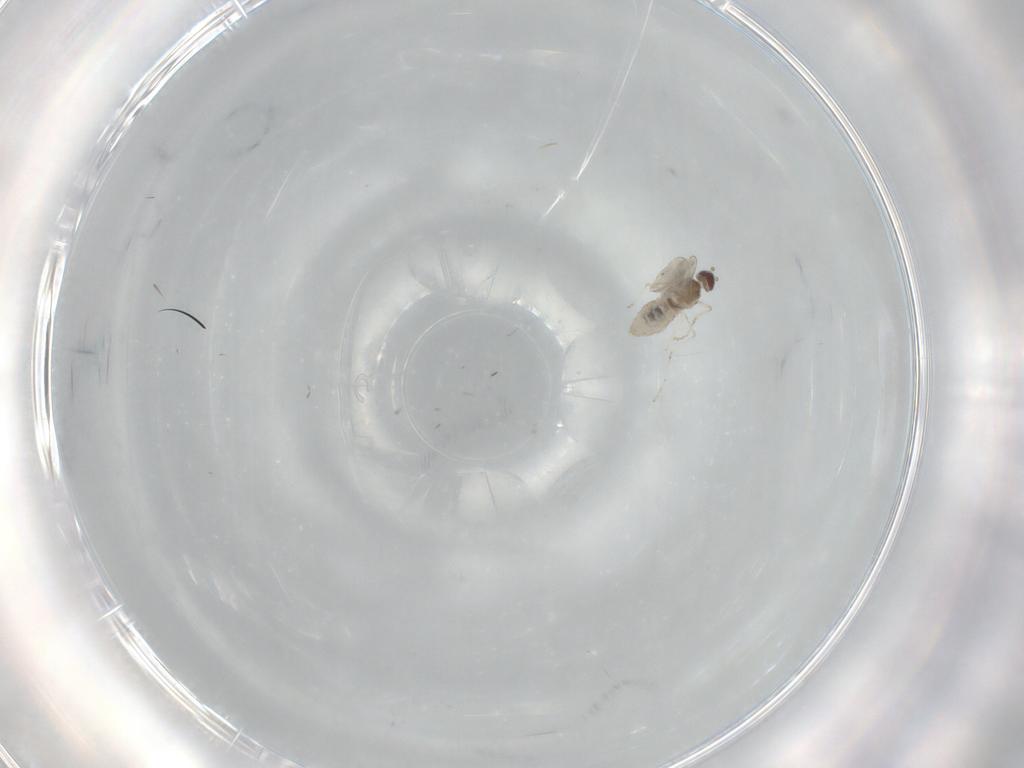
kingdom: Animalia
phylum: Arthropoda
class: Insecta
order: Diptera
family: Cecidomyiidae
